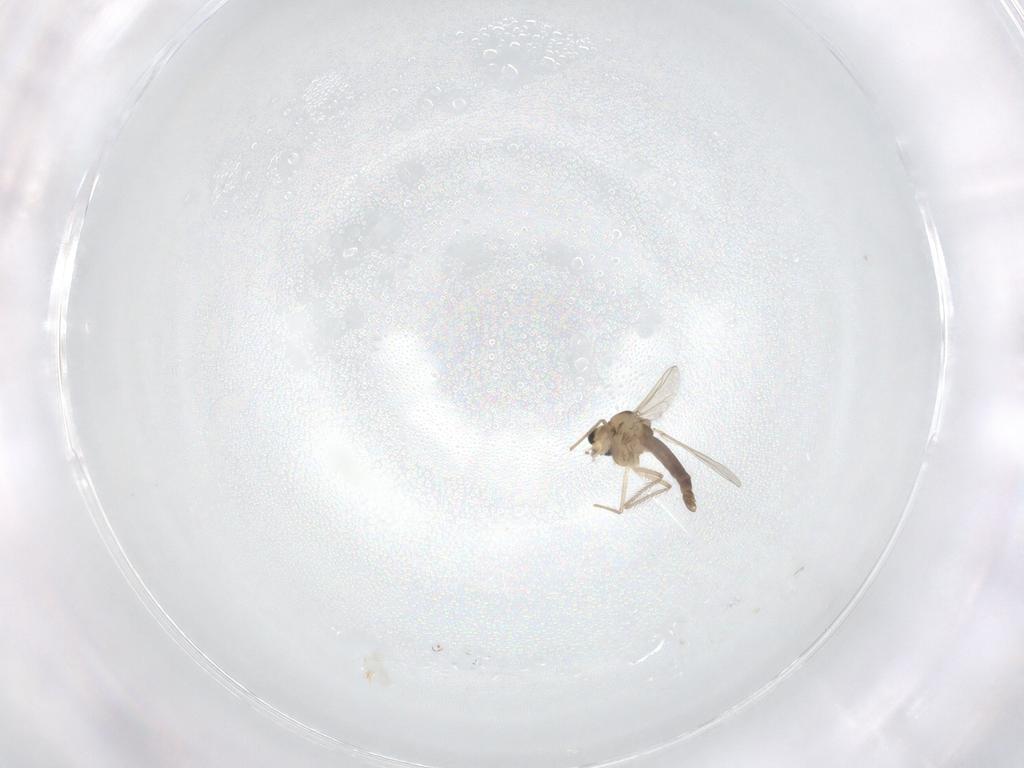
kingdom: Animalia
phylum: Arthropoda
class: Insecta
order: Diptera
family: Chironomidae
